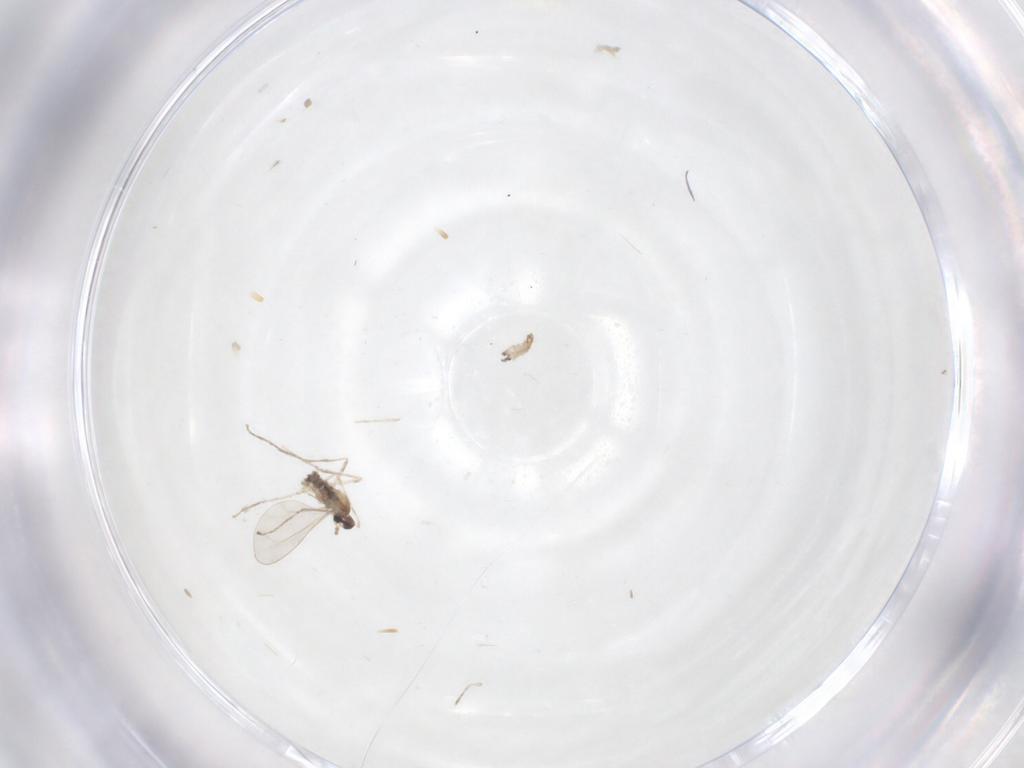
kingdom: Animalia
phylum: Arthropoda
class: Insecta
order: Diptera
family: Cecidomyiidae
